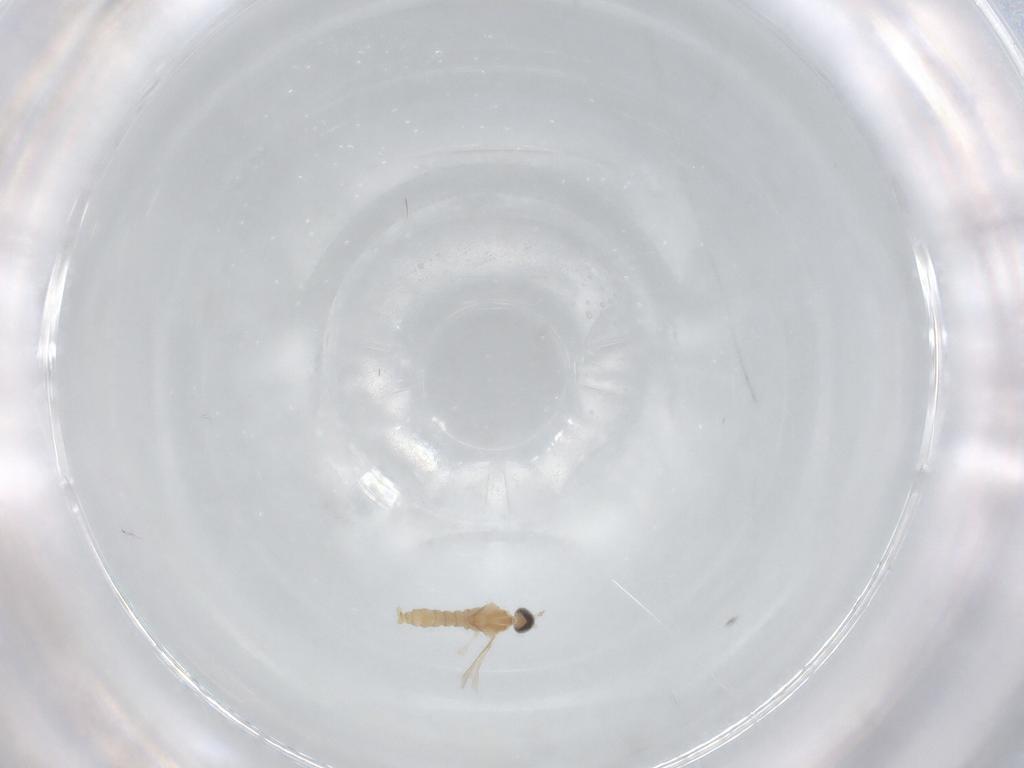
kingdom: Animalia
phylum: Arthropoda
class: Insecta
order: Diptera
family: Cecidomyiidae
